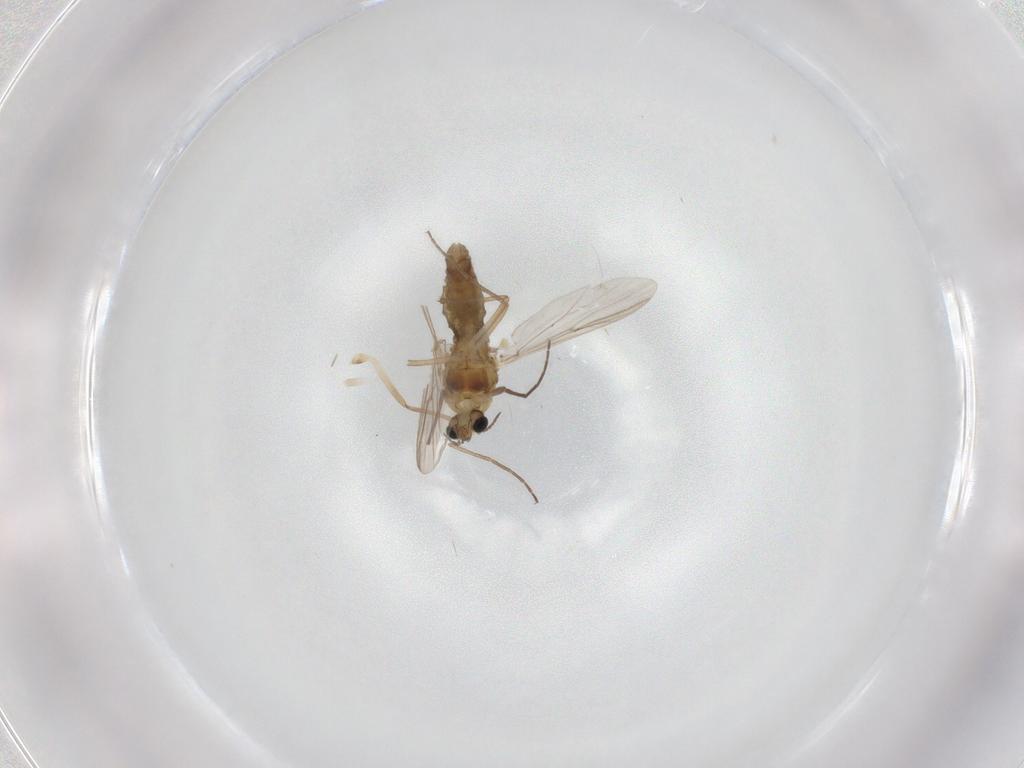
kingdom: Animalia
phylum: Arthropoda
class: Insecta
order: Diptera
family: Chironomidae
